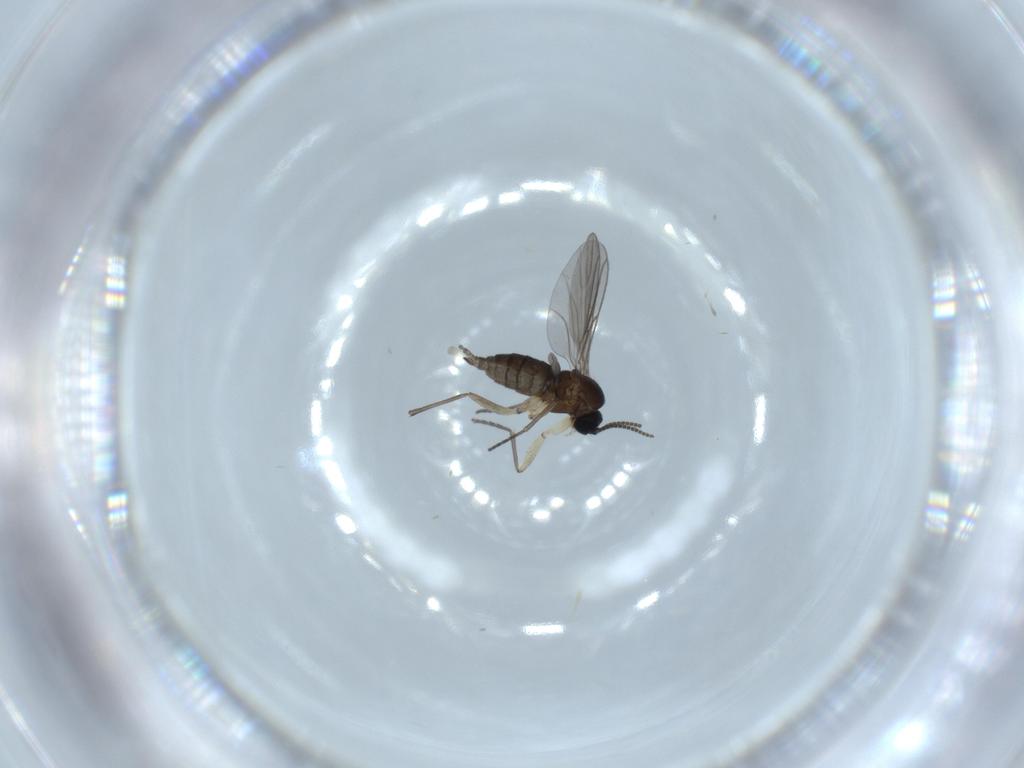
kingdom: Animalia
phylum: Arthropoda
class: Insecta
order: Diptera
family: Sciaridae
